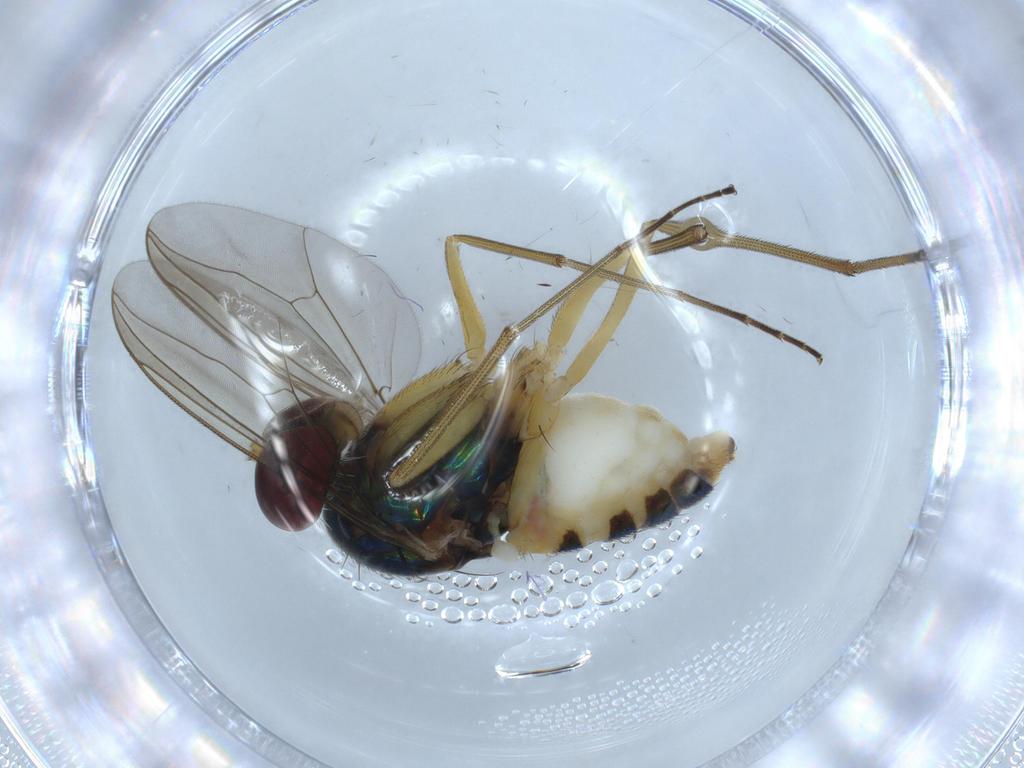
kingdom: Animalia
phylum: Arthropoda
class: Insecta
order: Diptera
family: Dolichopodidae
